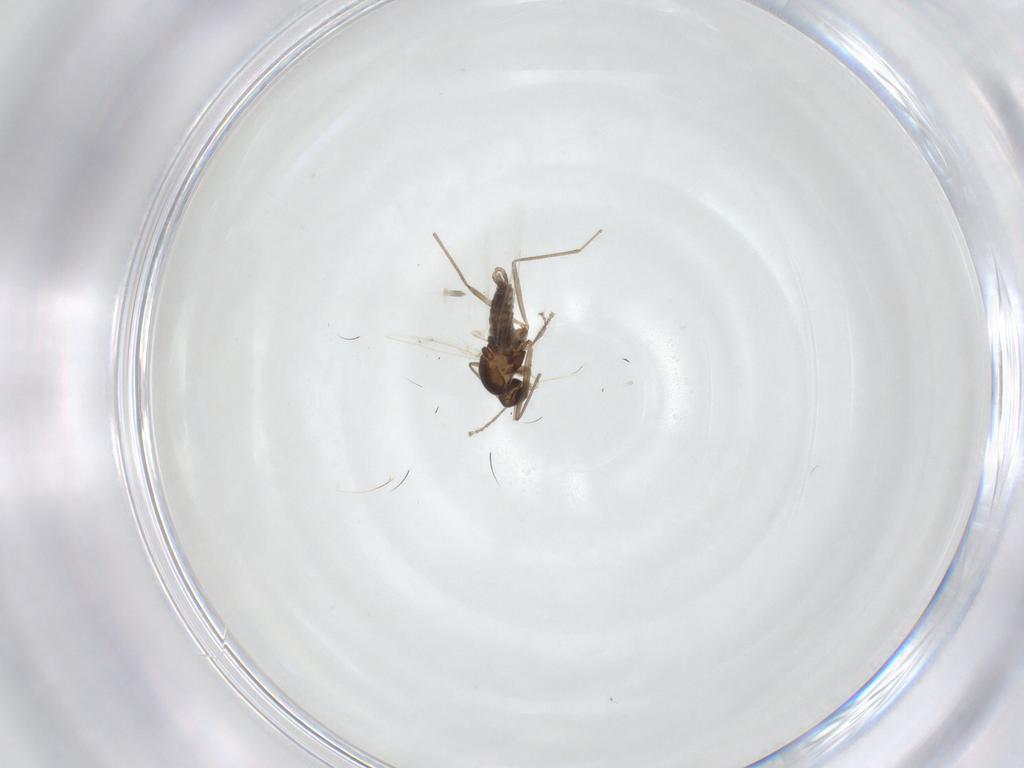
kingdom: Animalia
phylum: Arthropoda
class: Insecta
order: Diptera
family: Cecidomyiidae
